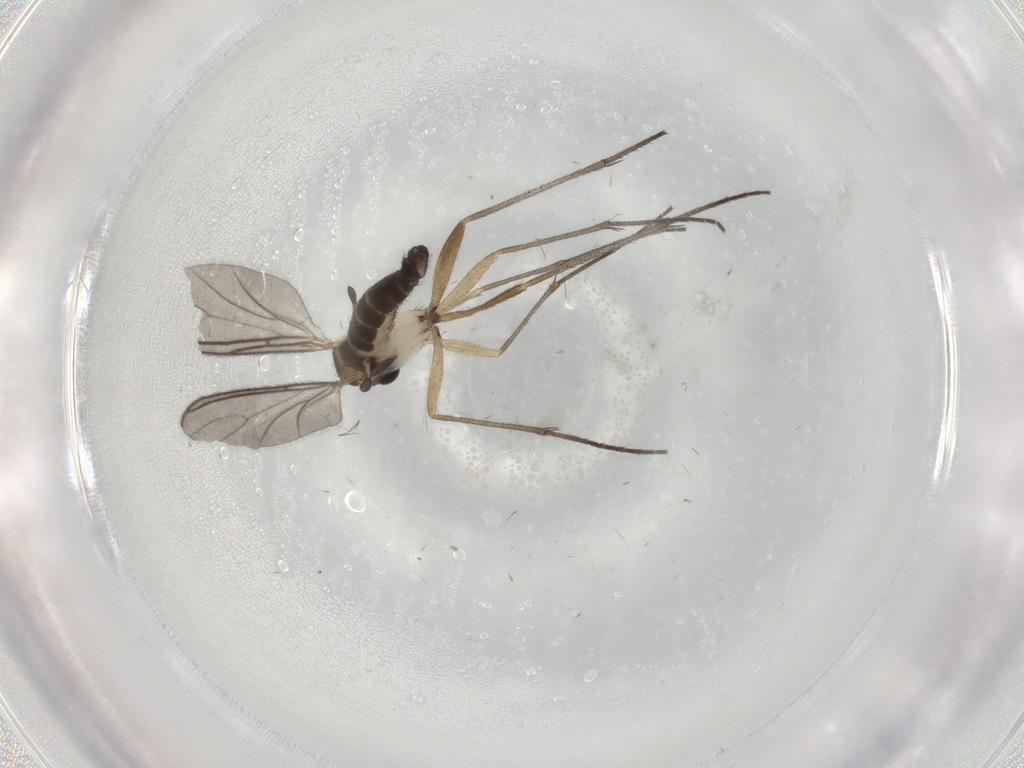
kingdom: Animalia
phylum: Arthropoda
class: Insecta
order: Diptera
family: Sciaridae
